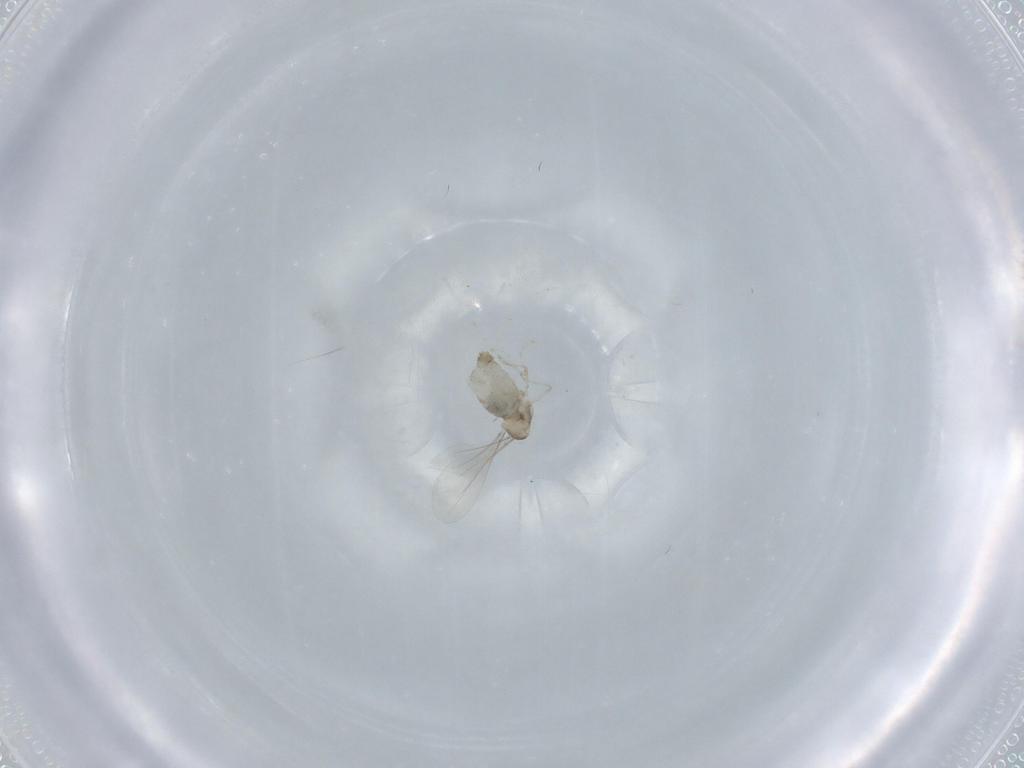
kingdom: Animalia
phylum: Arthropoda
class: Insecta
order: Diptera
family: Cecidomyiidae
